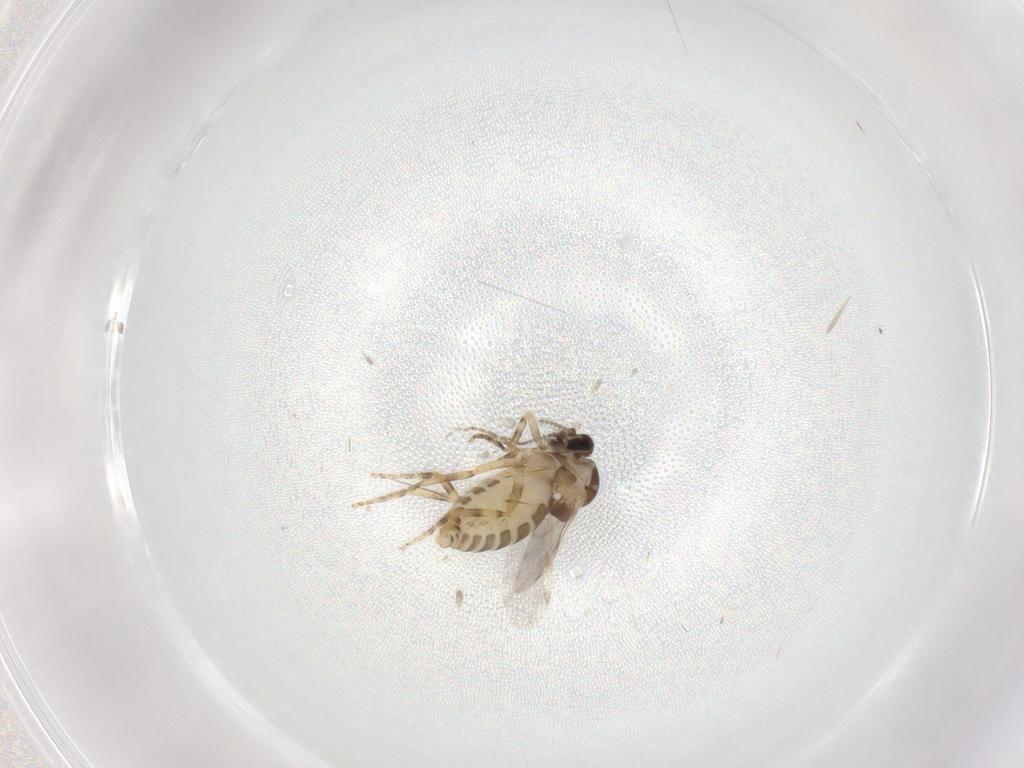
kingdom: Animalia
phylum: Arthropoda
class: Insecta
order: Diptera
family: Ceratopogonidae
